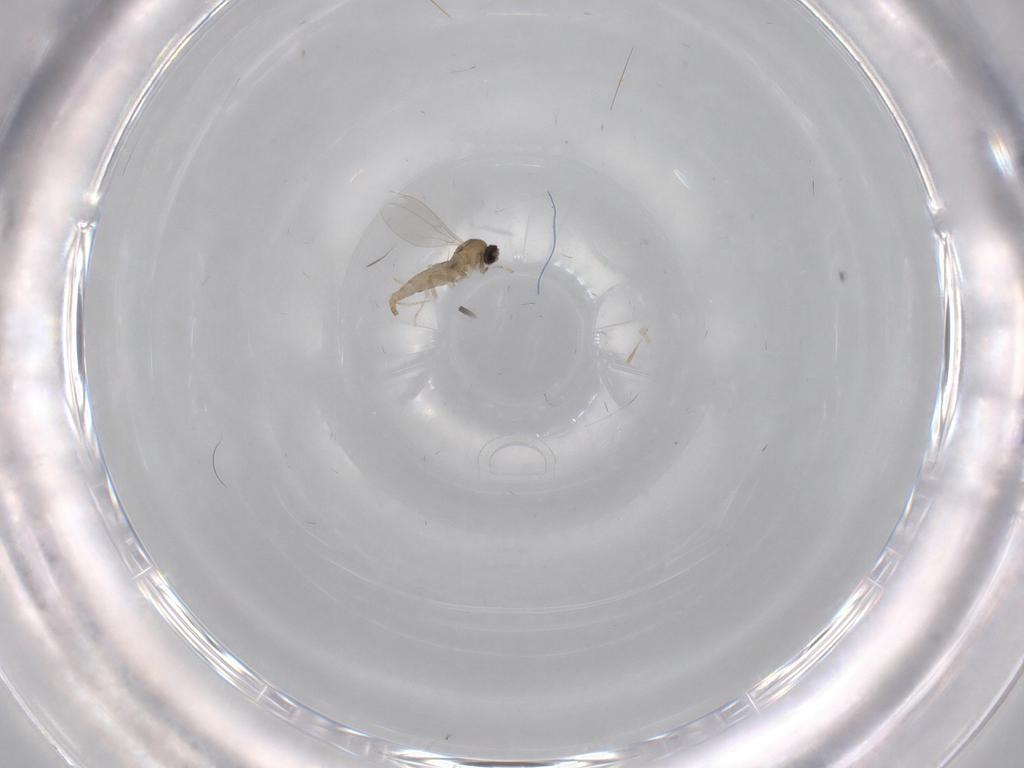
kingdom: Animalia
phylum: Arthropoda
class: Insecta
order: Diptera
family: Cecidomyiidae
